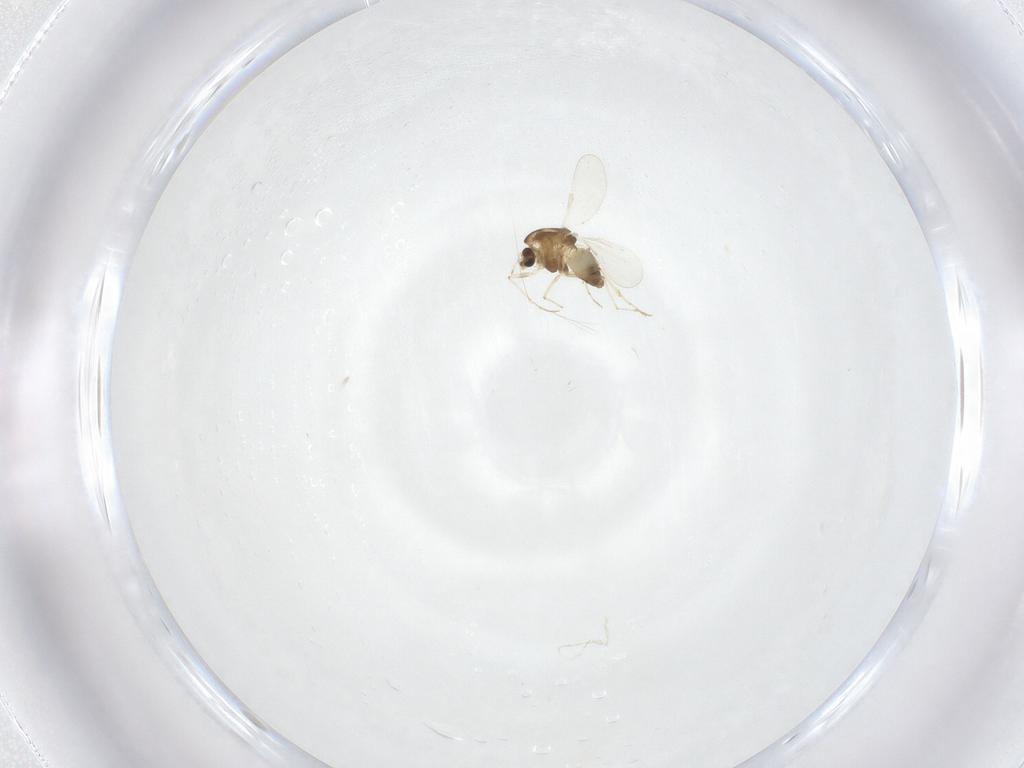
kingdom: Animalia
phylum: Arthropoda
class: Insecta
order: Diptera
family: Chironomidae
